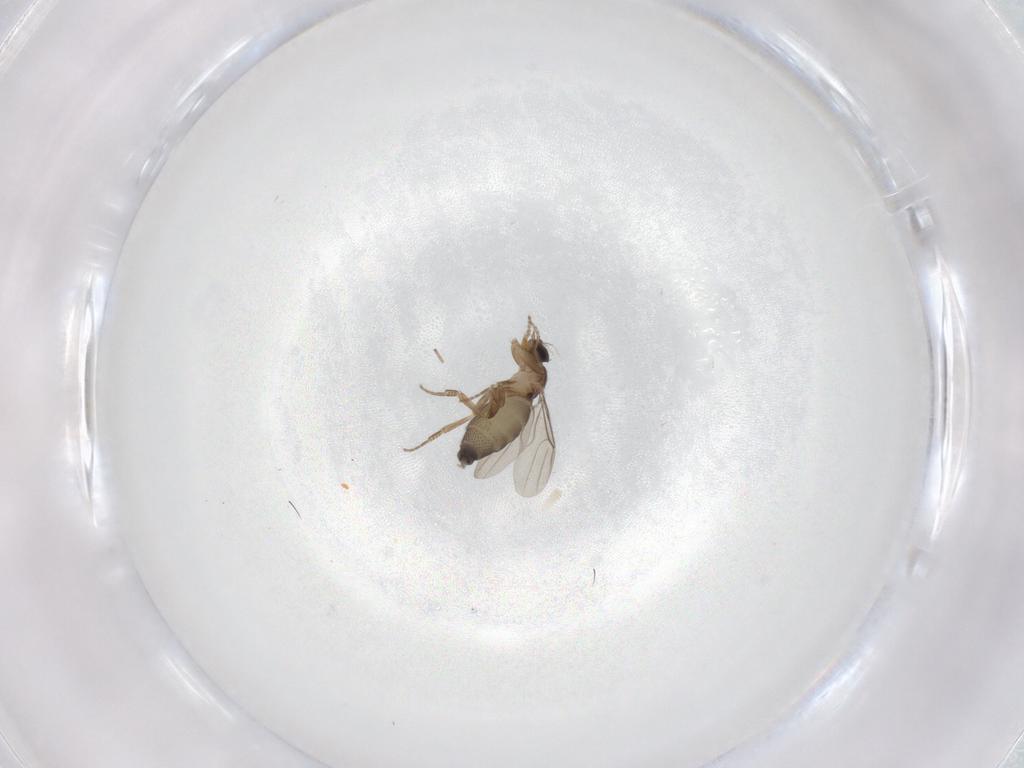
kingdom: Animalia
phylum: Arthropoda
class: Insecta
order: Diptera
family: Phoridae
